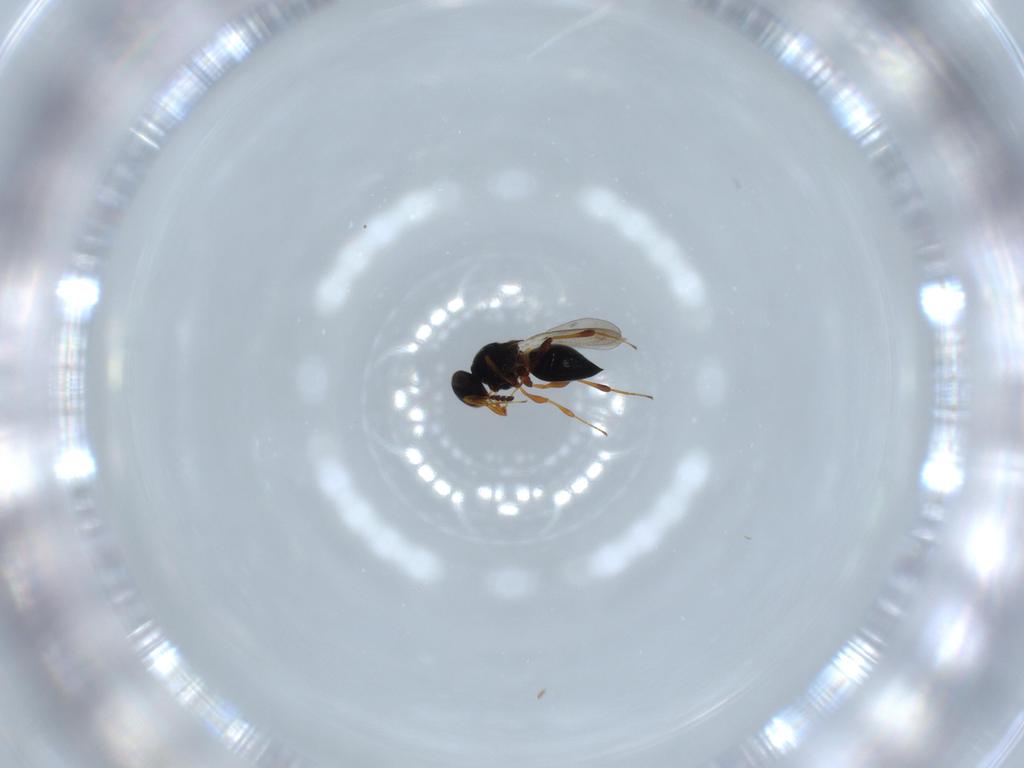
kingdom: Animalia
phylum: Arthropoda
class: Insecta
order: Hymenoptera
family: Platygastridae
